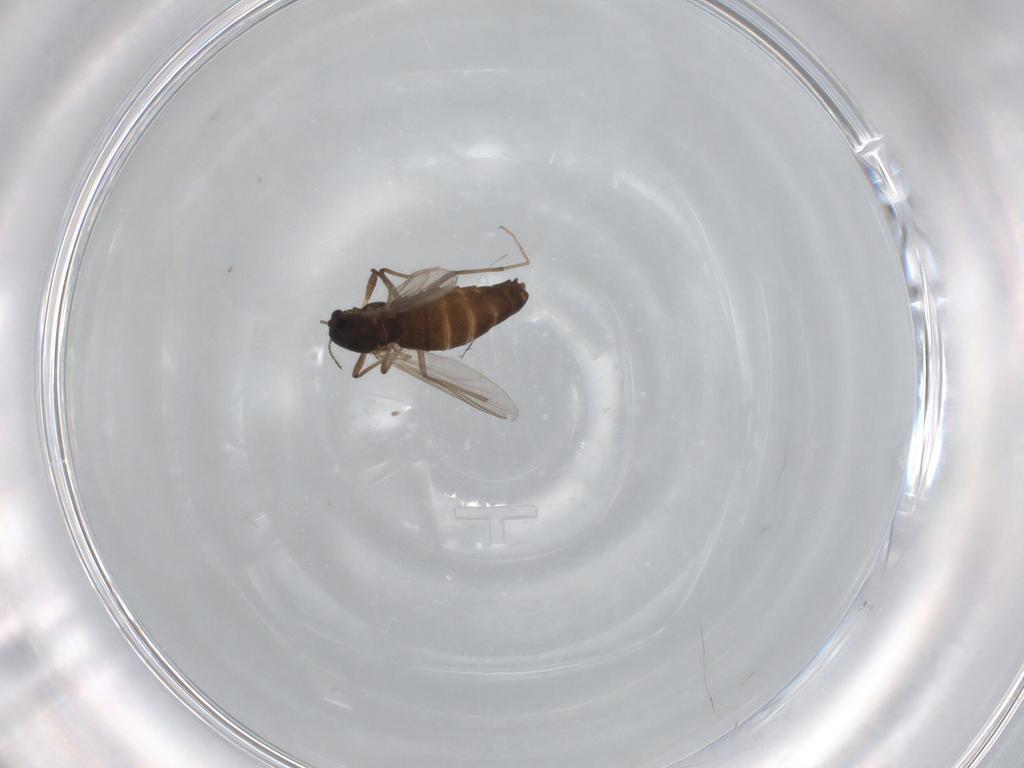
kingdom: Animalia
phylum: Arthropoda
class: Insecta
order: Diptera
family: Chironomidae
